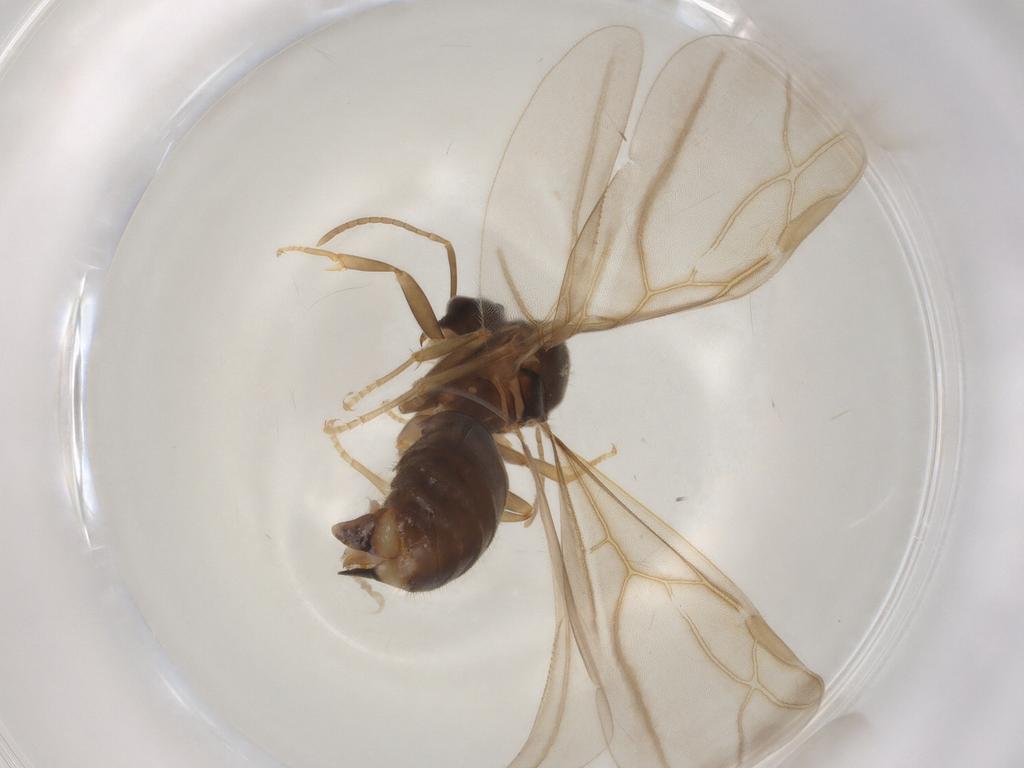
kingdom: Animalia
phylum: Arthropoda
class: Insecta
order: Hymenoptera
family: Formicidae
